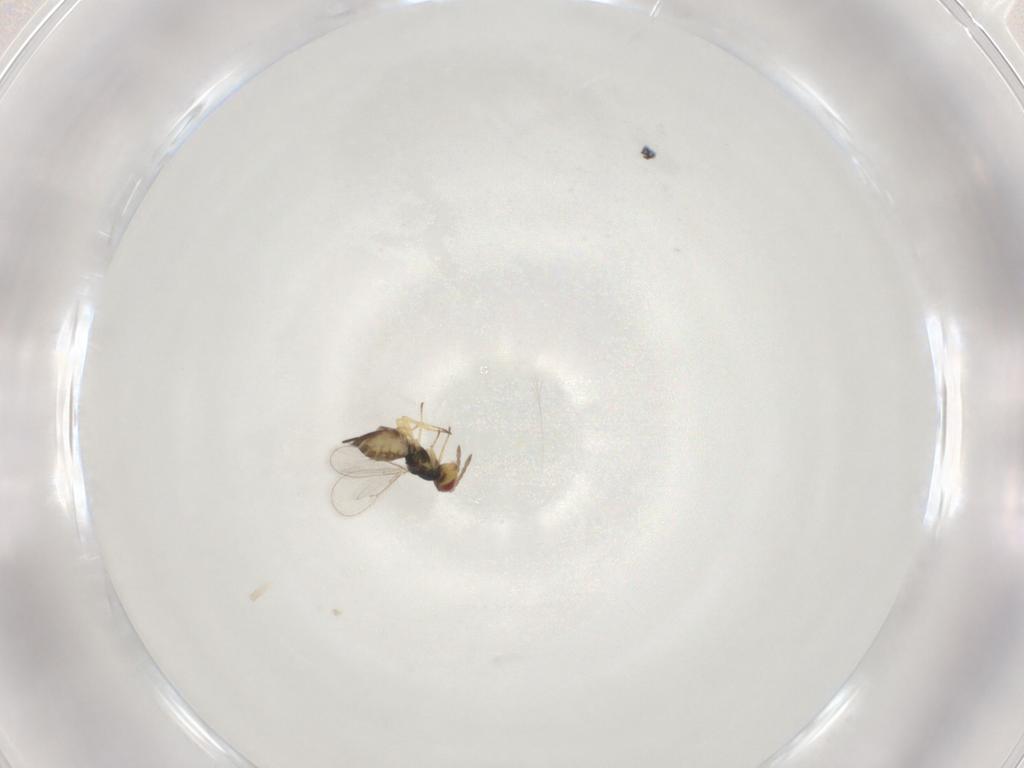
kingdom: Animalia
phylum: Arthropoda
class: Insecta
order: Hymenoptera
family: Eulophidae
